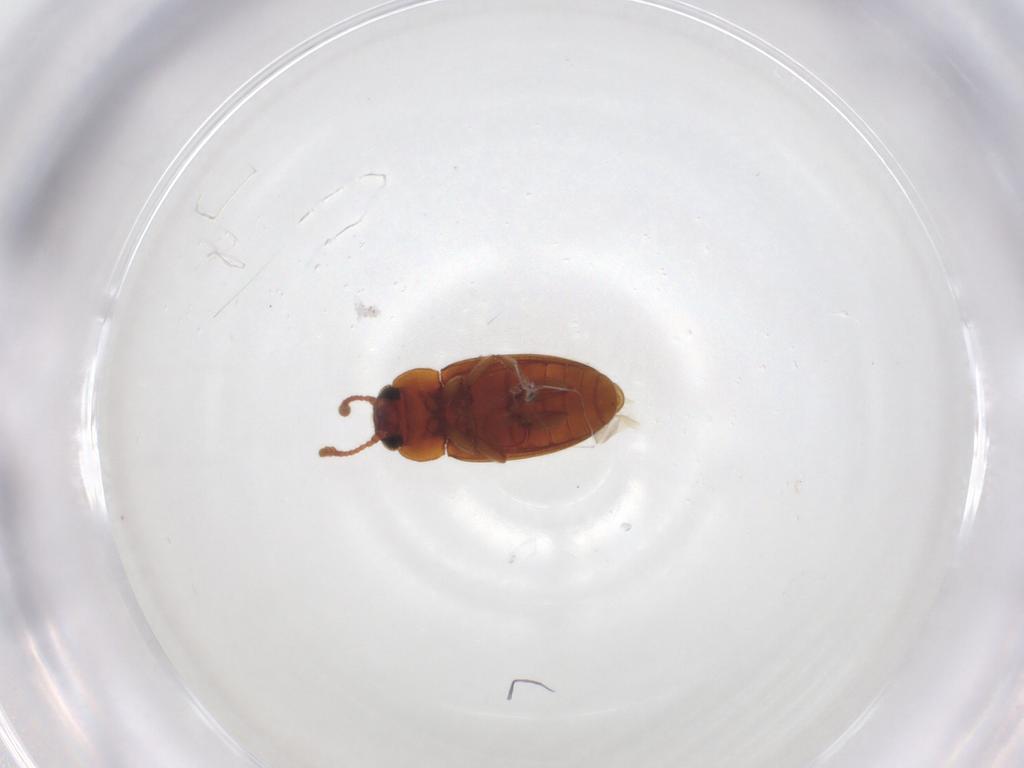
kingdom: Animalia
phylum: Arthropoda
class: Insecta
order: Coleoptera
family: Erotylidae
